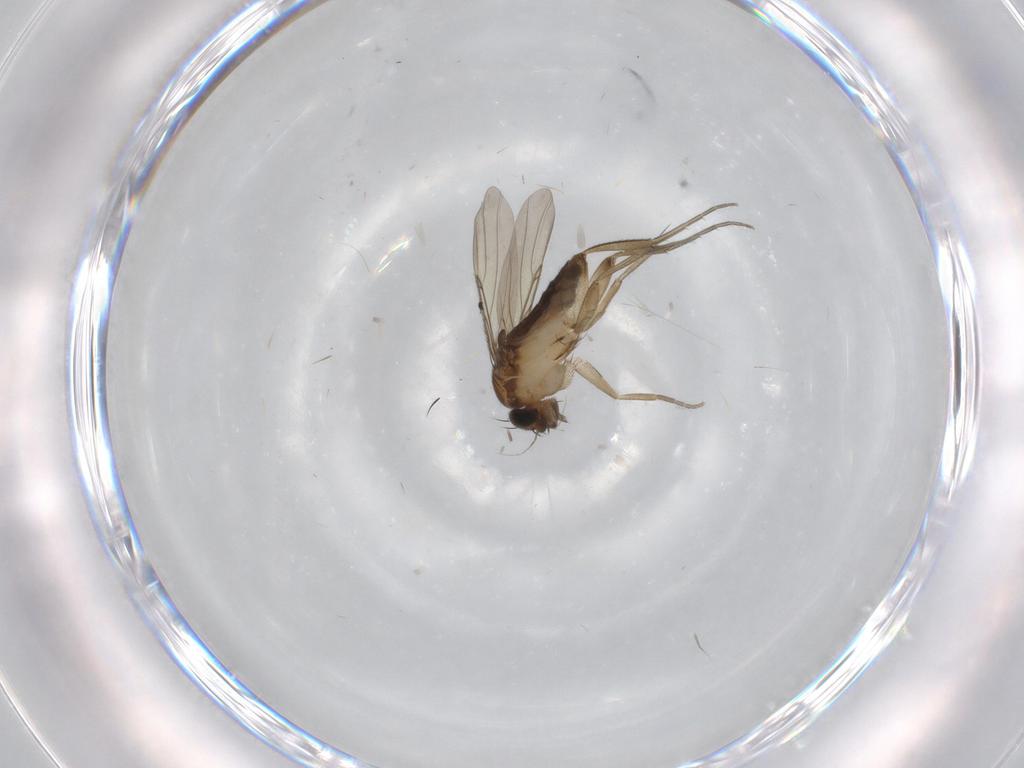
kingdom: Animalia
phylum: Arthropoda
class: Insecta
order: Diptera
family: Phoridae
